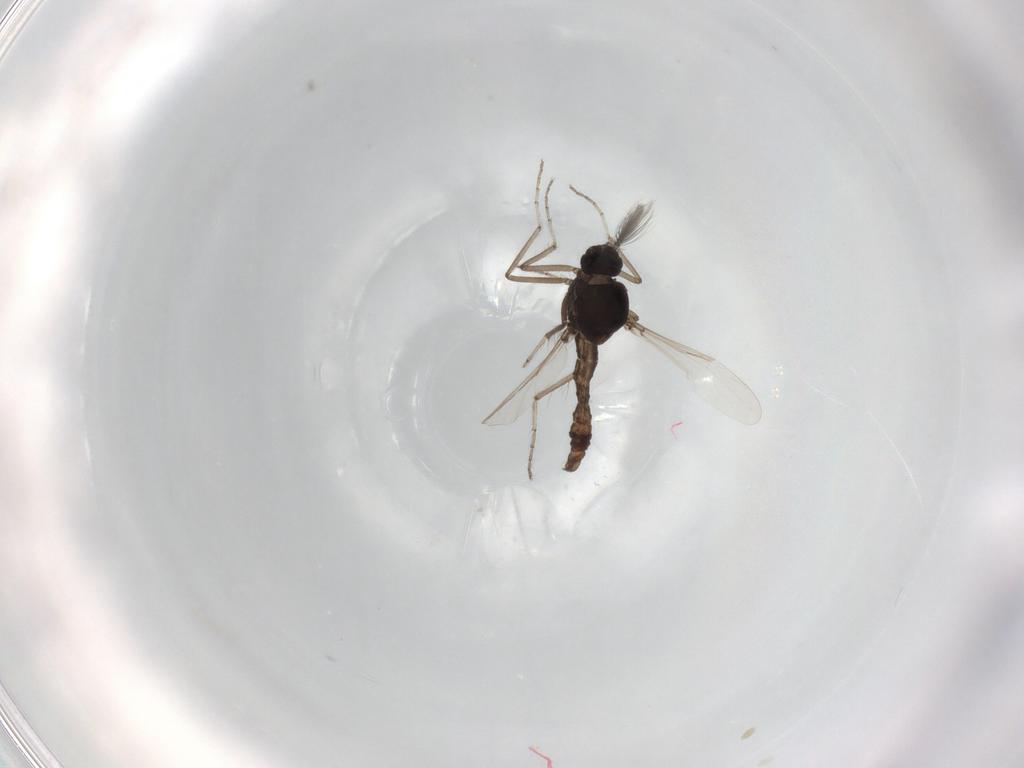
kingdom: Animalia
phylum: Arthropoda
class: Insecta
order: Diptera
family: Ceratopogonidae
